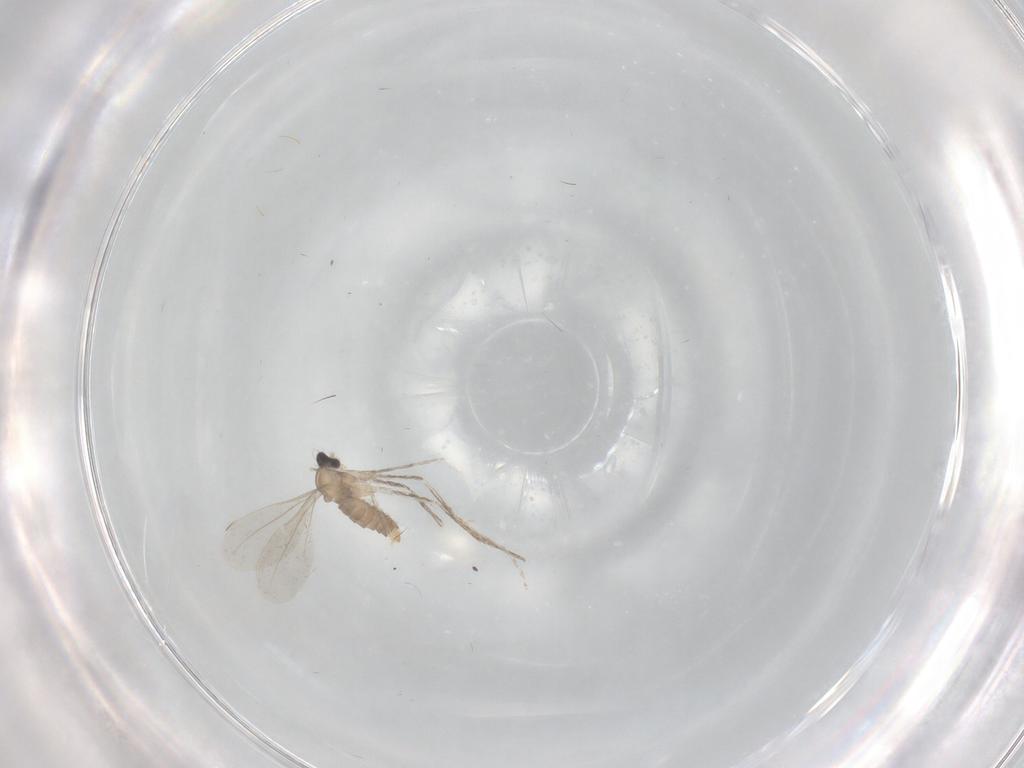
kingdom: Animalia
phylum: Arthropoda
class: Insecta
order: Diptera
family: Cecidomyiidae
